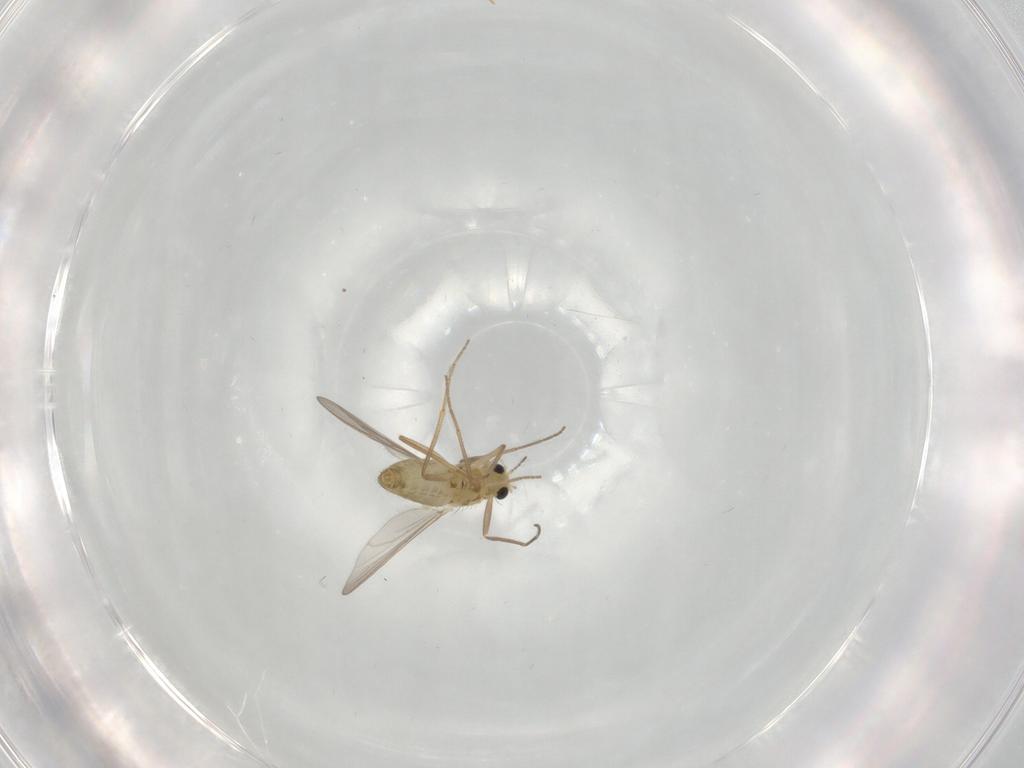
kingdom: Animalia
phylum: Arthropoda
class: Insecta
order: Diptera
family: Chironomidae
